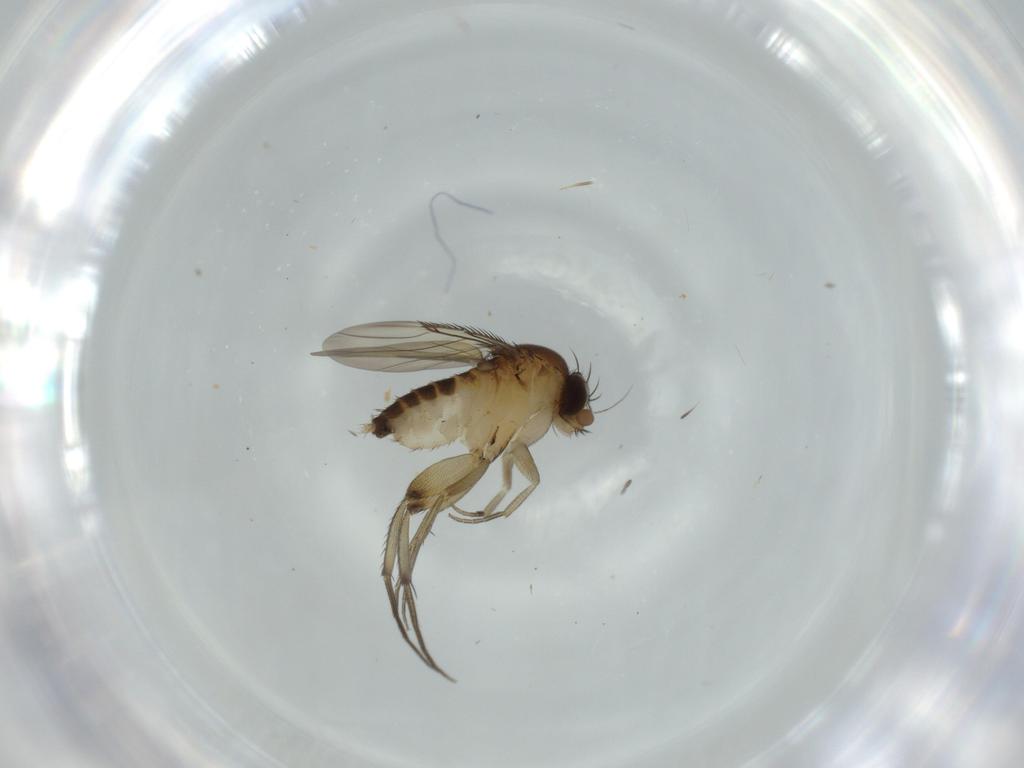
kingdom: Animalia
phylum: Arthropoda
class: Insecta
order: Diptera
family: Phoridae
